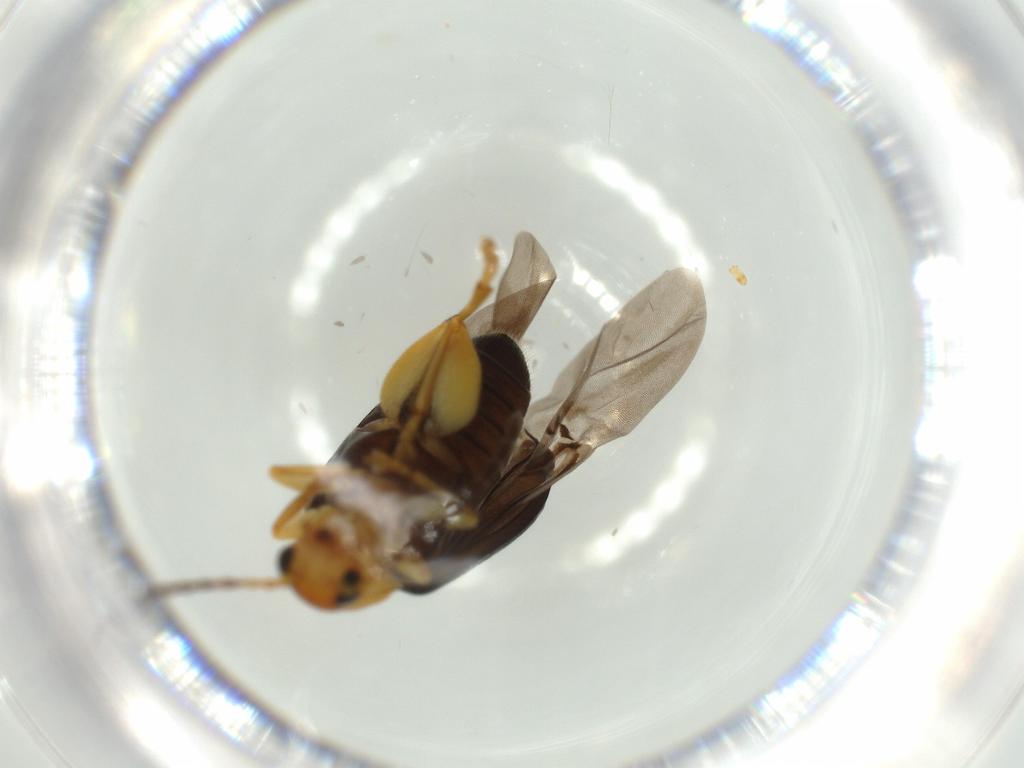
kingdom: Animalia
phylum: Arthropoda
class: Insecta
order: Coleoptera
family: Chrysomelidae
